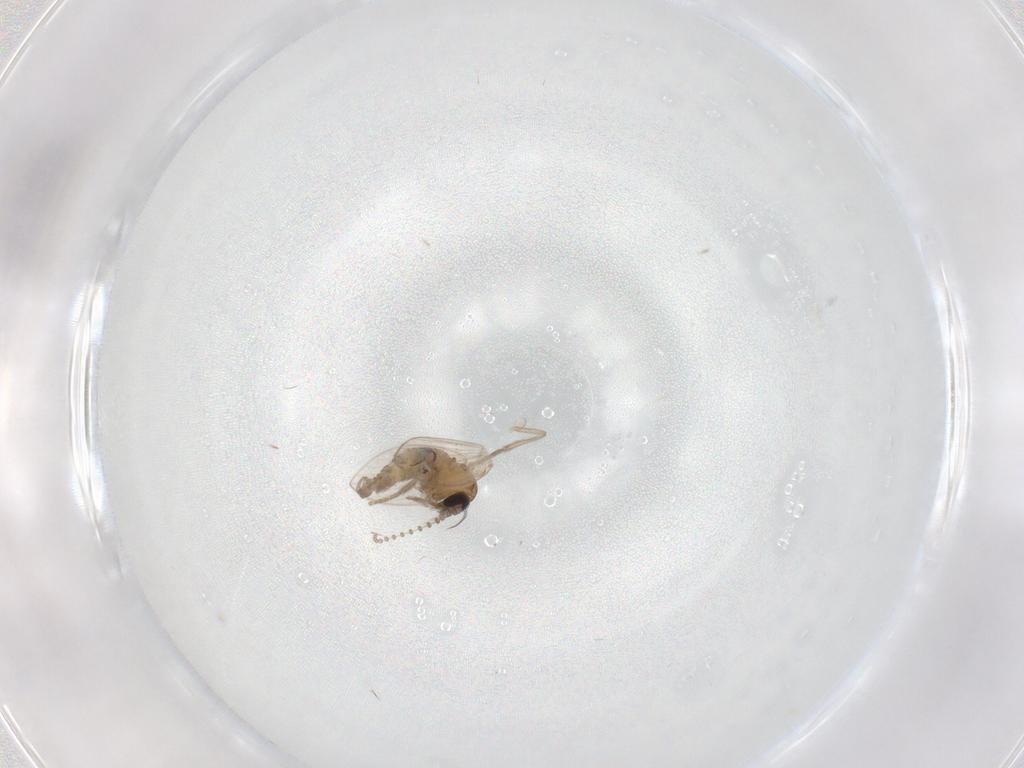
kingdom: Animalia
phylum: Arthropoda
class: Insecta
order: Diptera
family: Psychodidae
